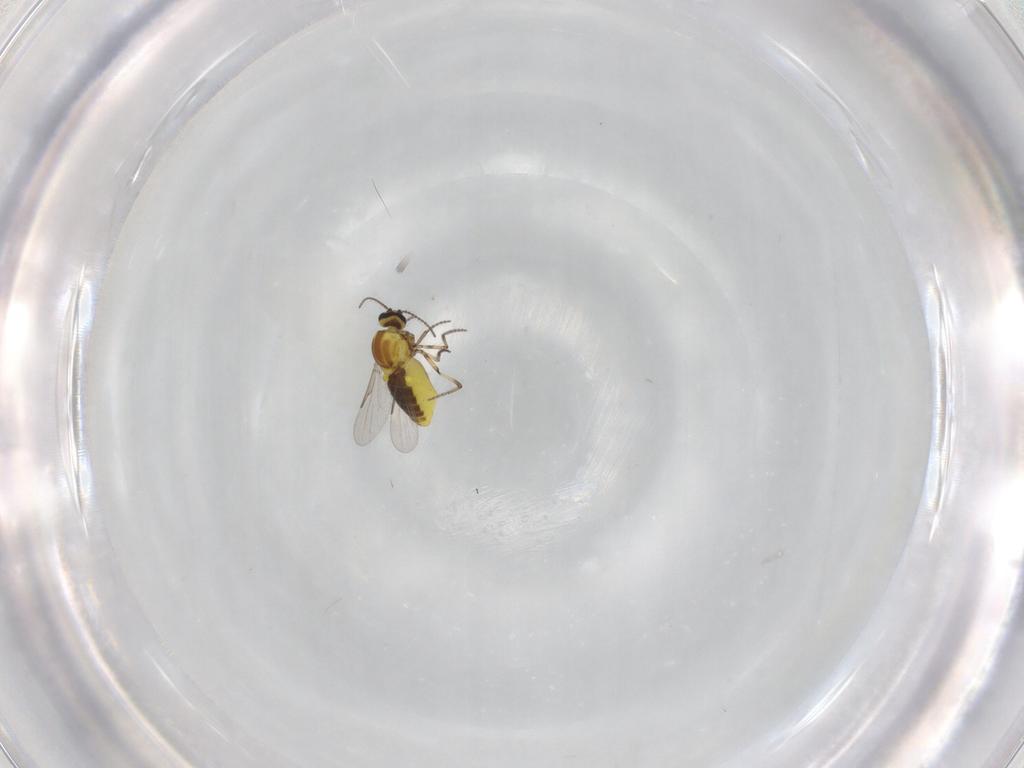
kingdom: Animalia
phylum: Arthropoda
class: Insecta
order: Diptera
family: Ceratopogonidae
